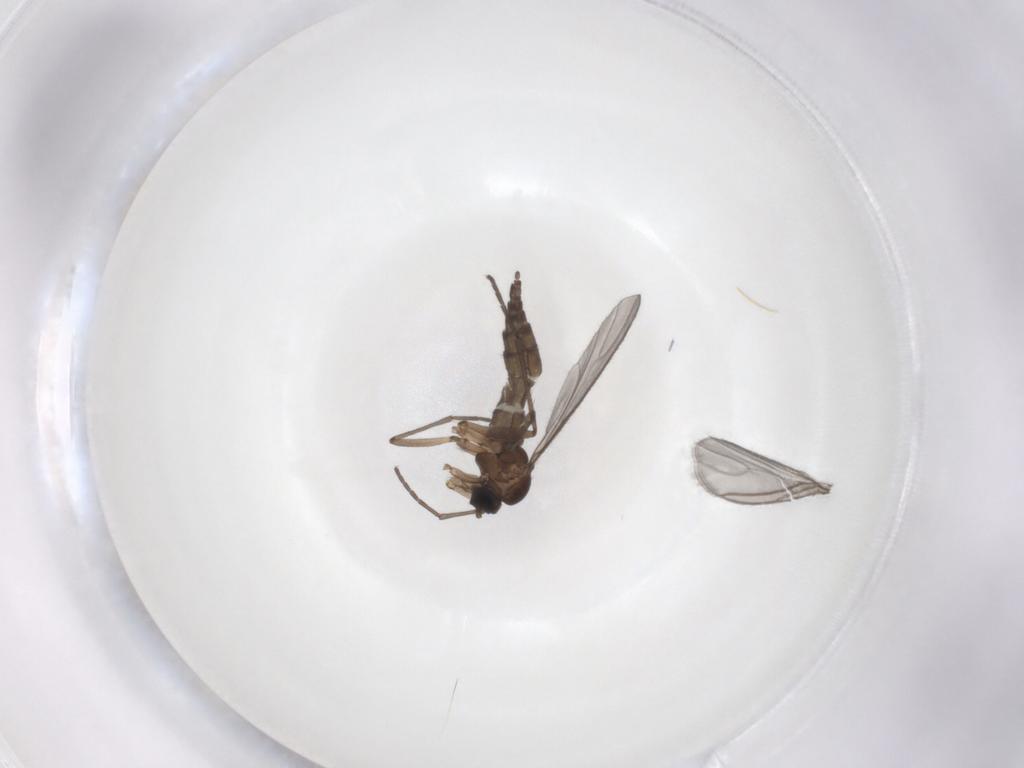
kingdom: Animalia
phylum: Arthropoda
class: Insecta
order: Diptera
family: Sciaridae
